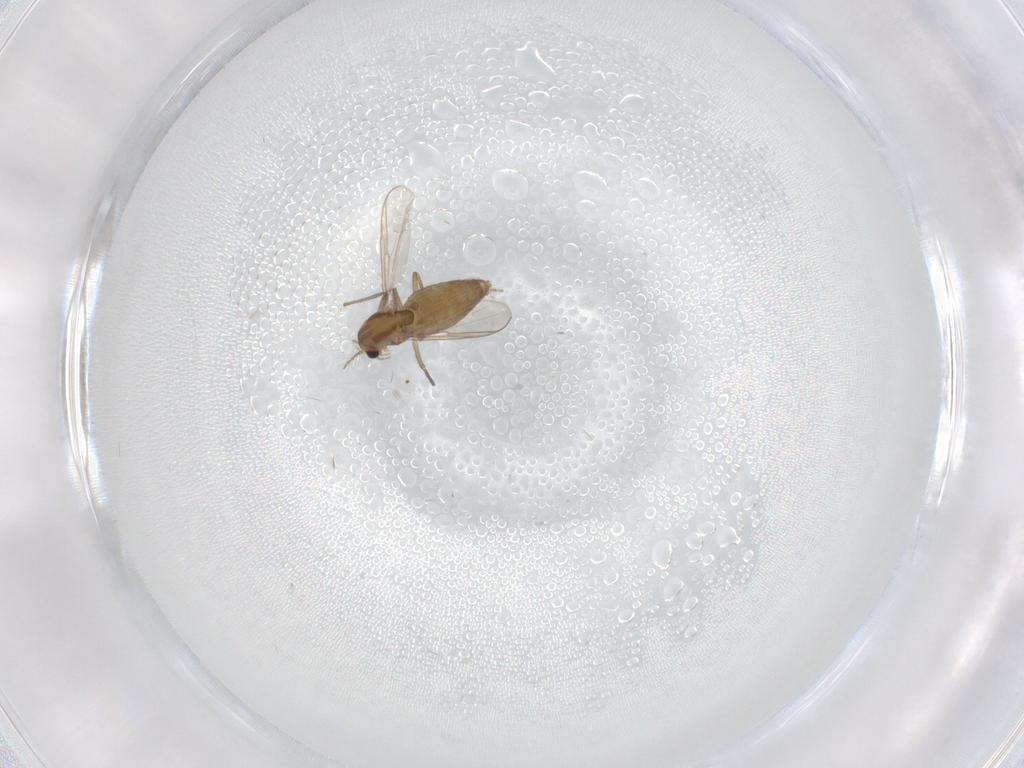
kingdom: Animalia
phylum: Arthropoda
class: Insecta
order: Diptera
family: Chironomidae
